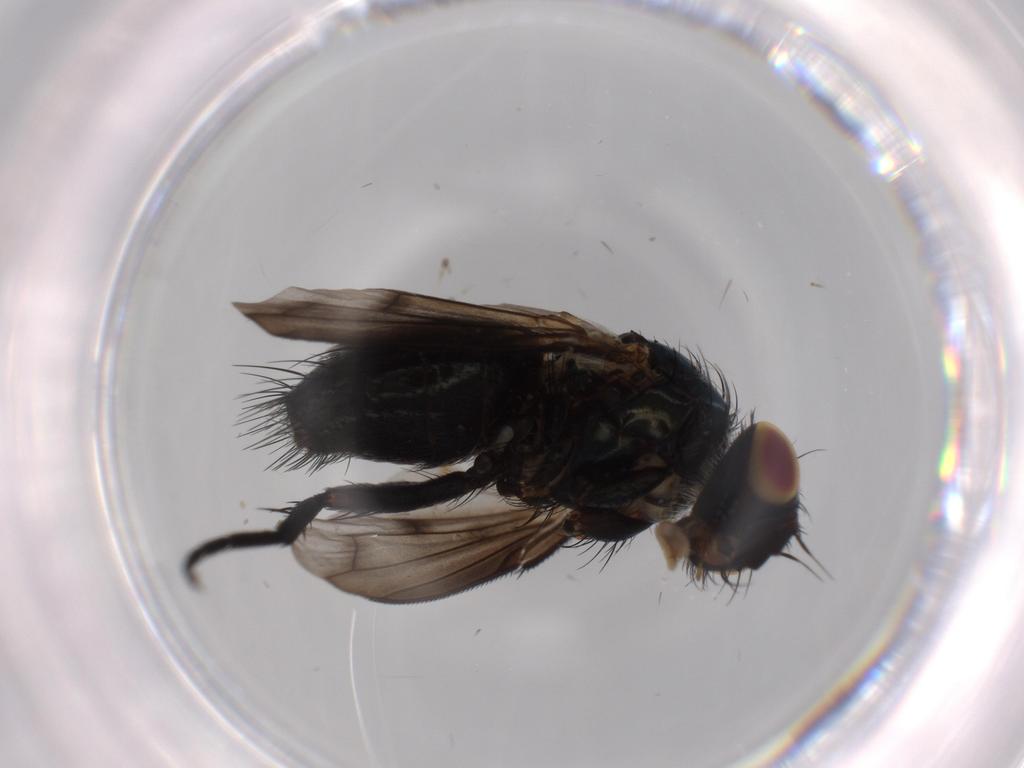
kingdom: Animalia
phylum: Arthropoda
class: Insecta
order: Diptera
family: Tachinidae
